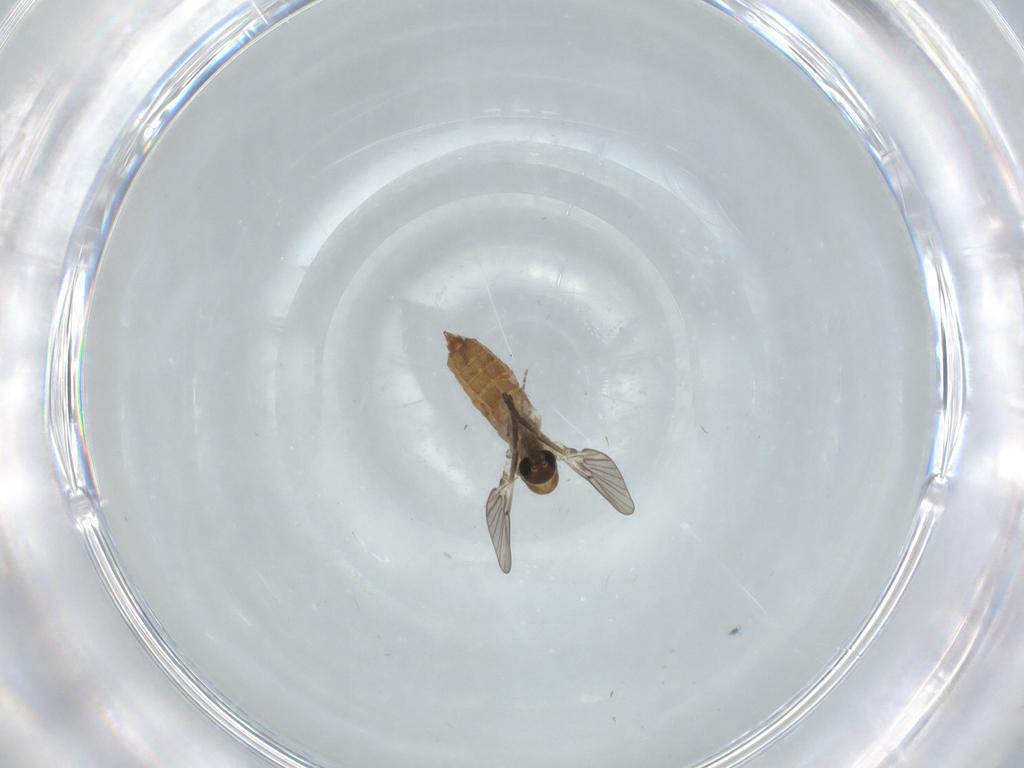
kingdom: Animalia
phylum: Arthropoda
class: Insecta
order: Diptera
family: Psychodidae
